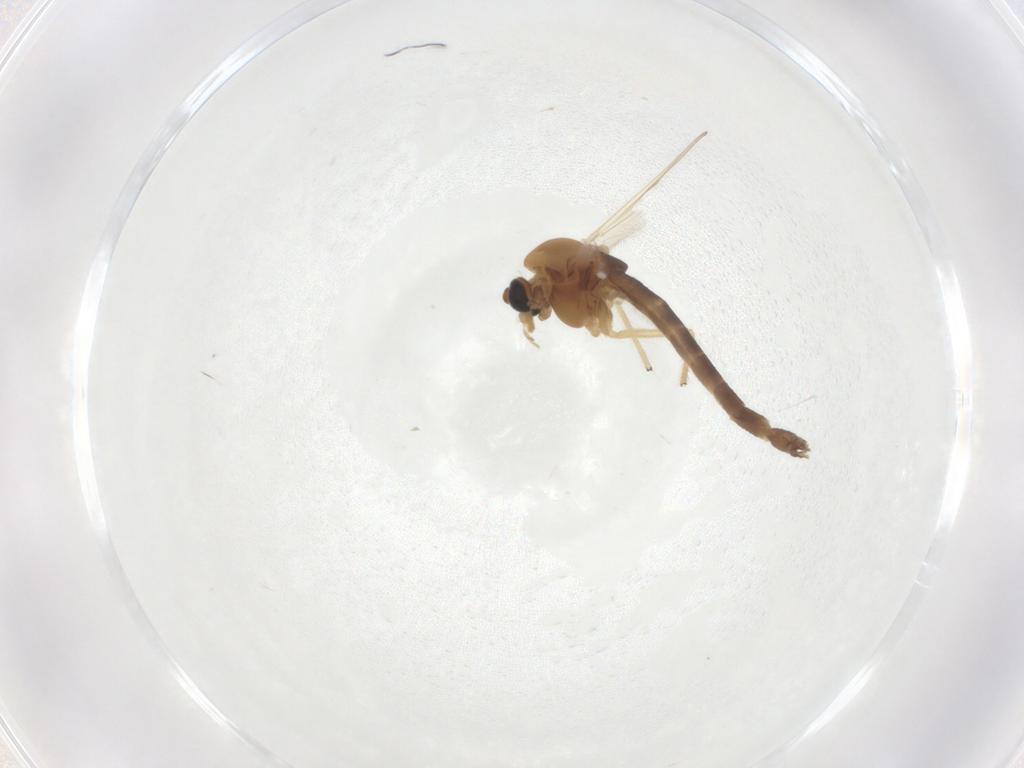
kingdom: Animalia
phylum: Arthropoda
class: Insecta
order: Diptera
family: Chironomidae
